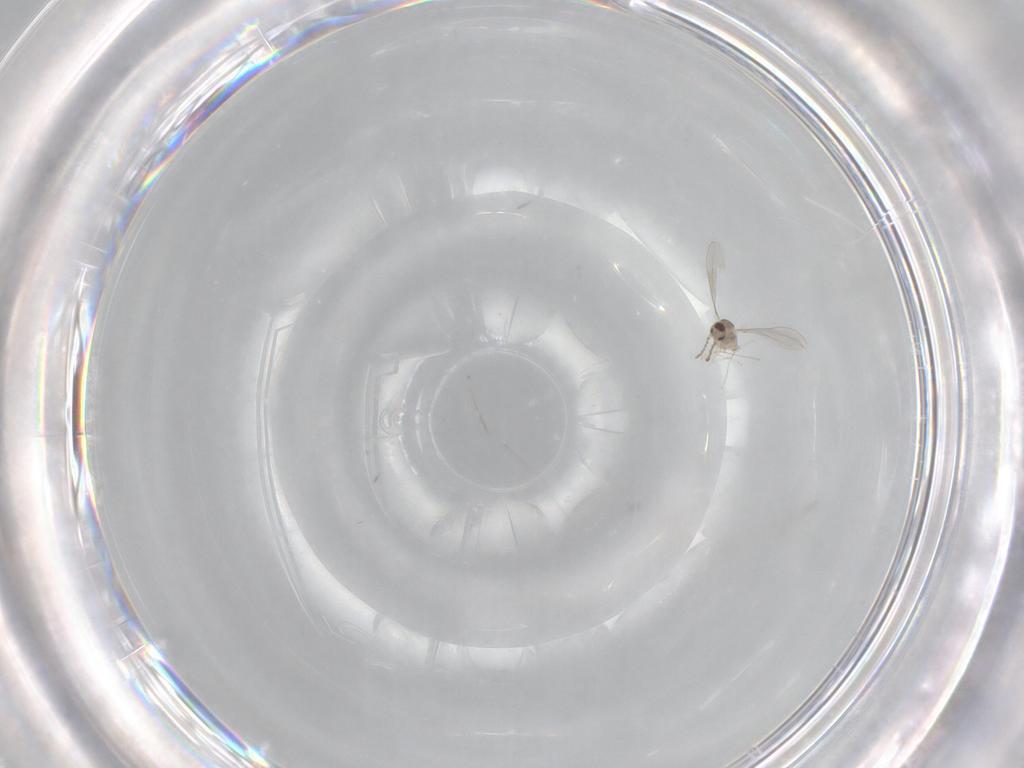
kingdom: Animalia
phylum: Arthropoda
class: Insecta
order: Diptera
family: Cecidomyiidae
